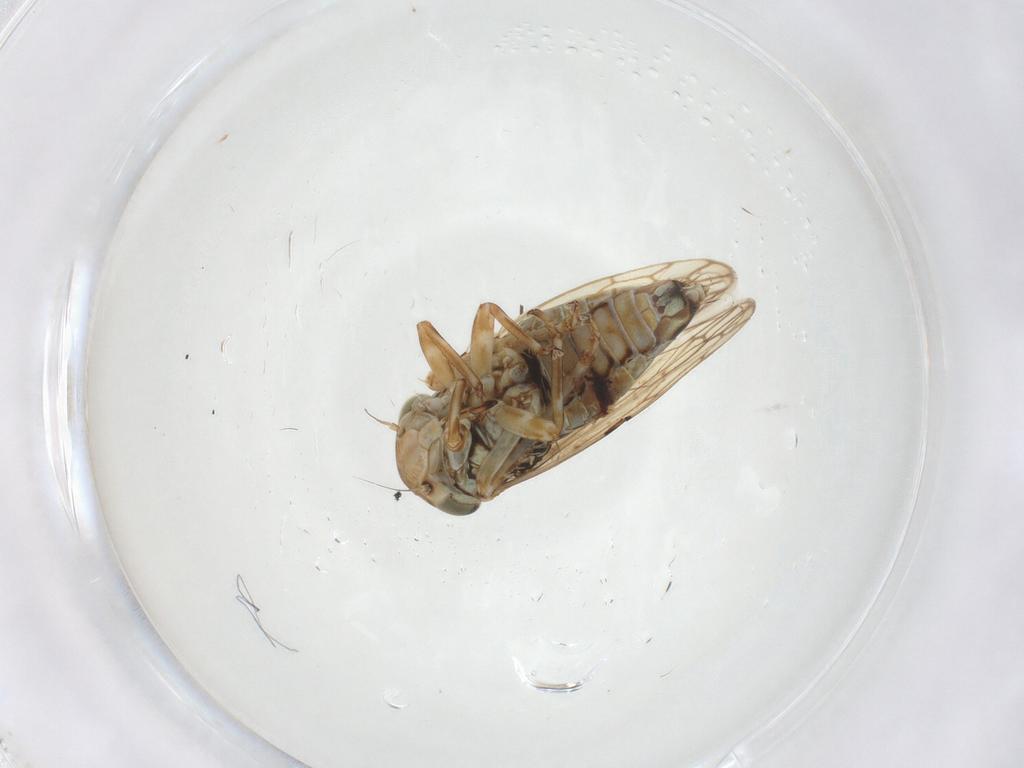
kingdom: Animalia
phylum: Arthropoda
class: Insecta
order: Hemiptera
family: Cicadellidae
